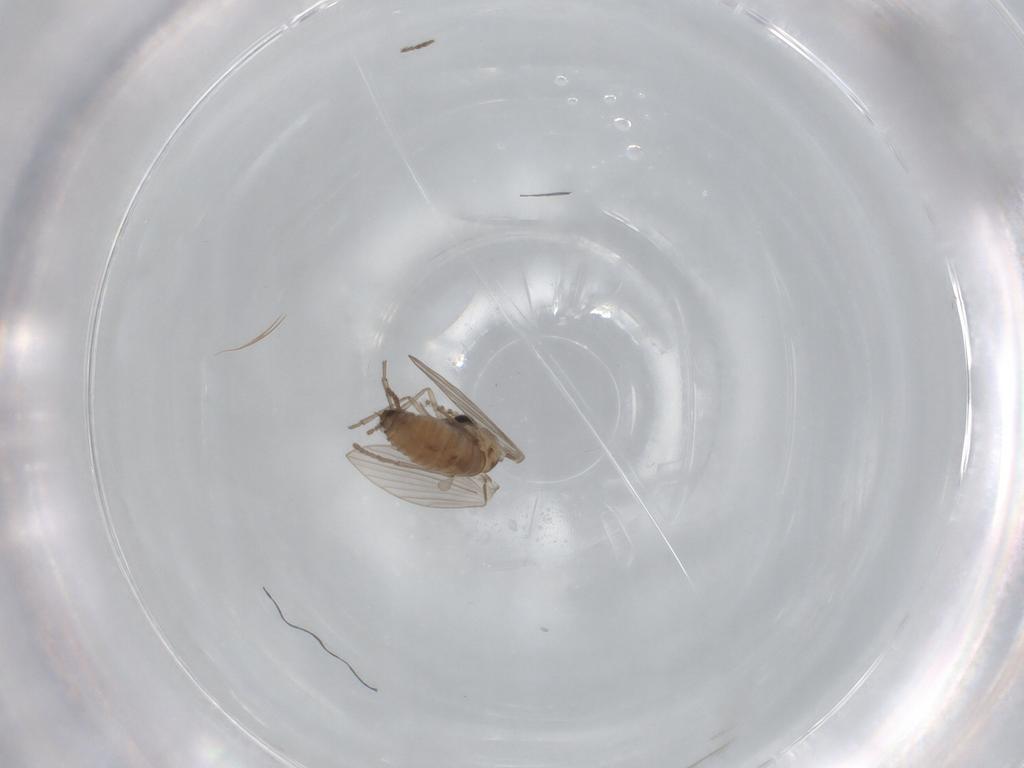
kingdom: Animalia
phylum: Arthropoda
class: Insecta
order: Diptera
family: Psychodidae
